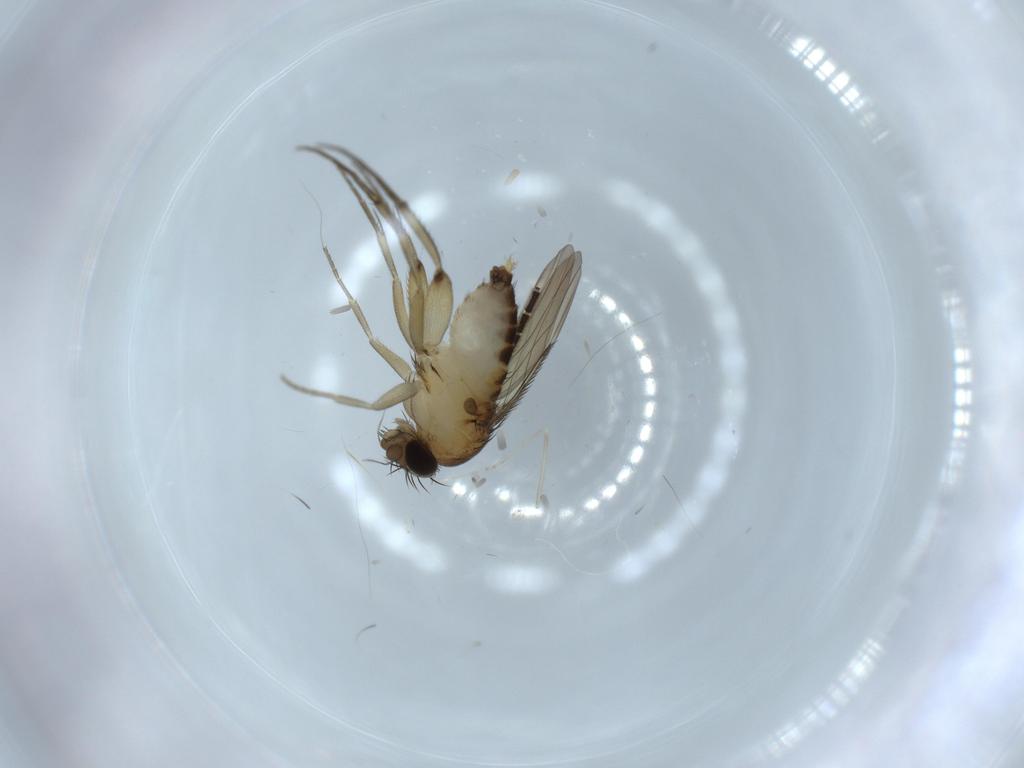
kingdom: Animalia
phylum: Arthropoda
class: Insecta
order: Diptera
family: Phoridae
